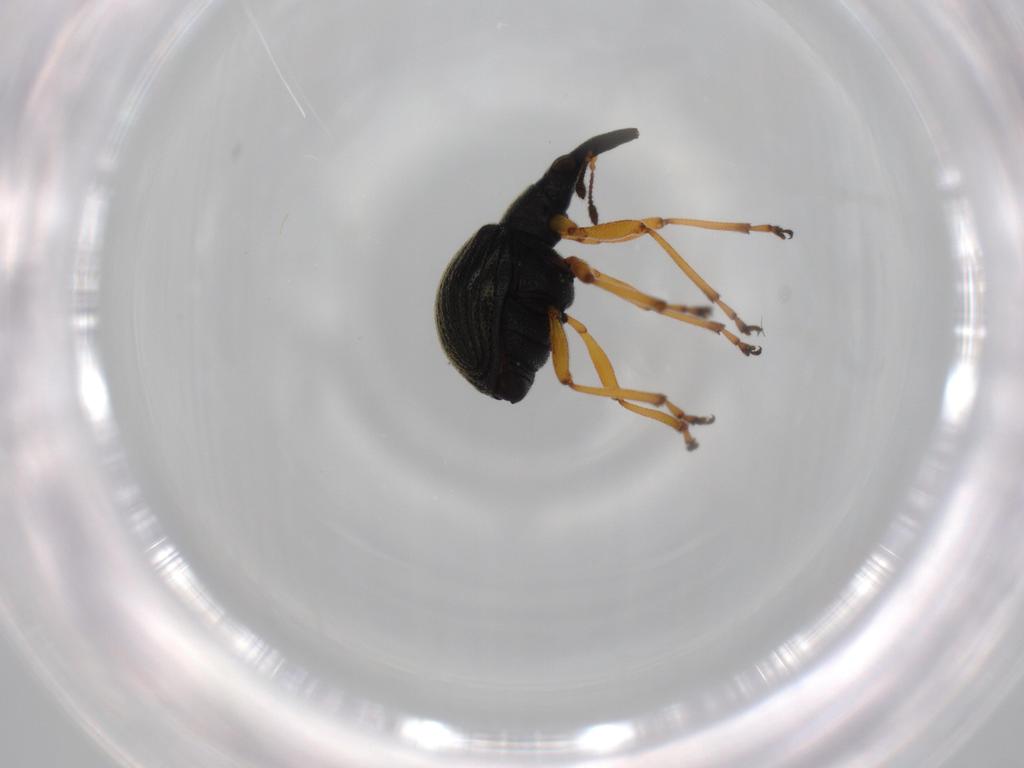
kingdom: Animalia
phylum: Arthropoda
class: Insecta
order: Coleoptera
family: Brentidae
